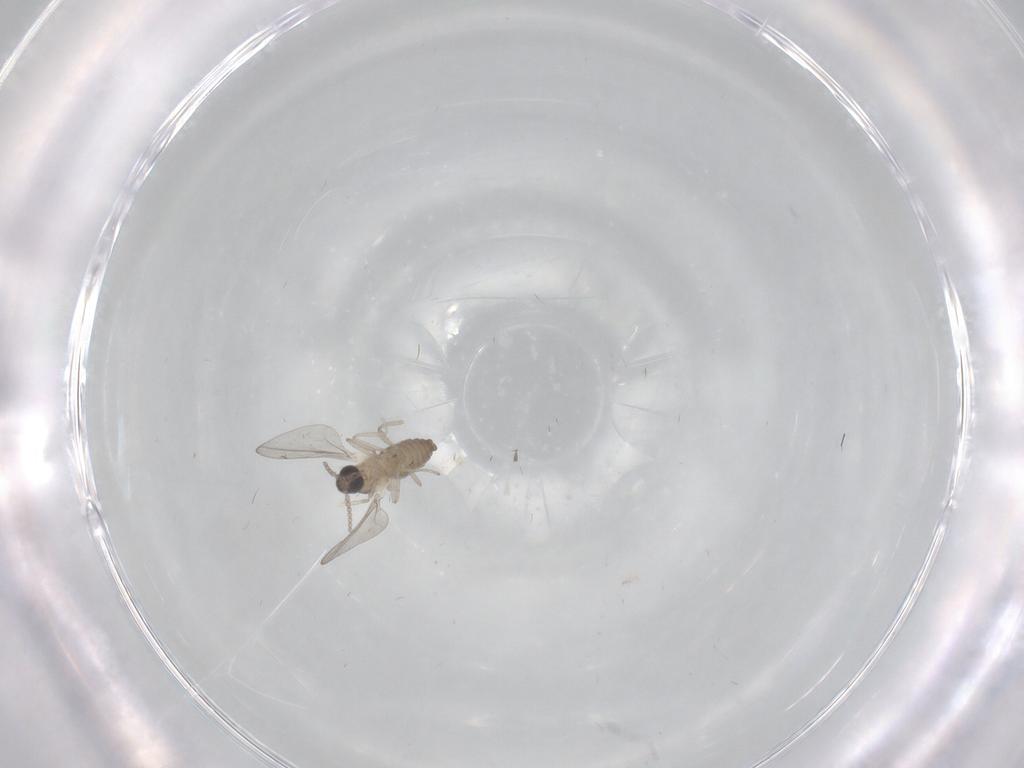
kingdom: Animalia
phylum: Arthropoda
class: Insecta
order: Diptera
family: Cecidomyiidae
